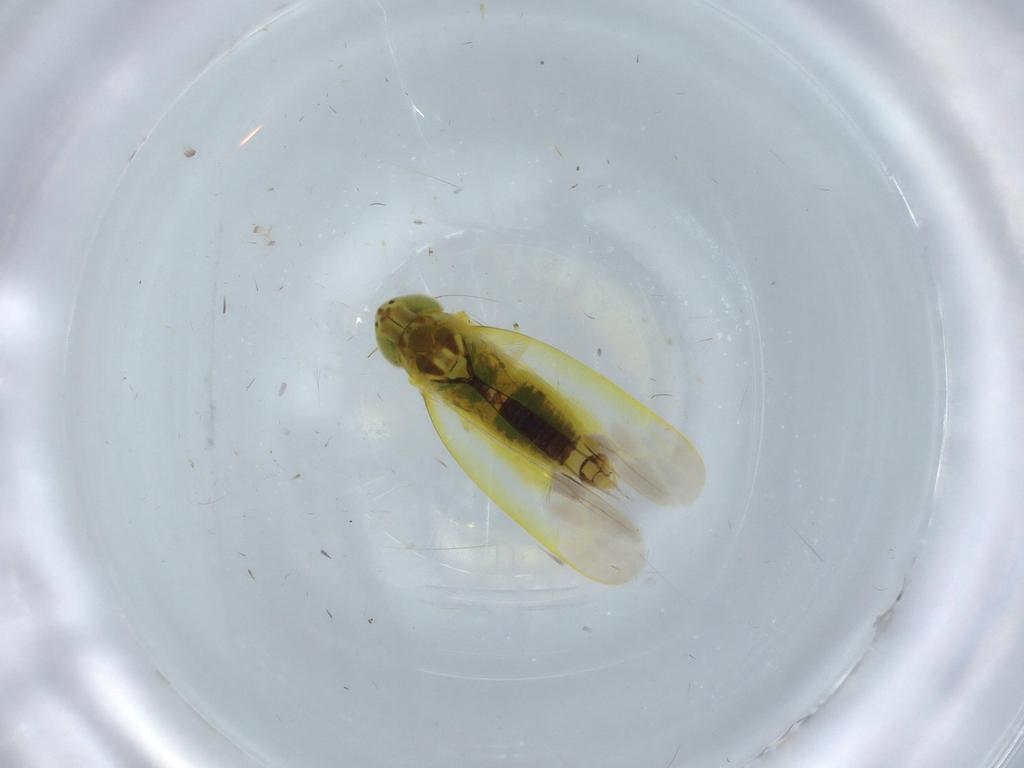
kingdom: Animalia
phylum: Arthropoda
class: Insecta
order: Hemiptera
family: Cicadellidae
